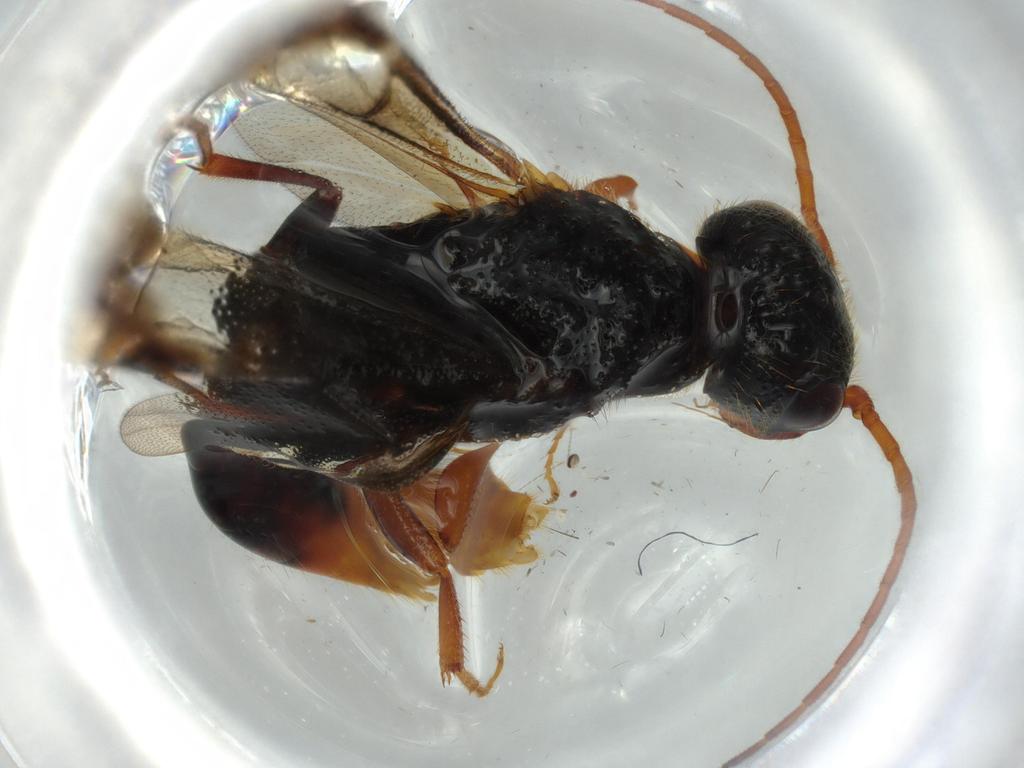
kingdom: Animalia
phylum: Arthropoda
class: Insecta
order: Hymenoptera
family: Bethylidae
